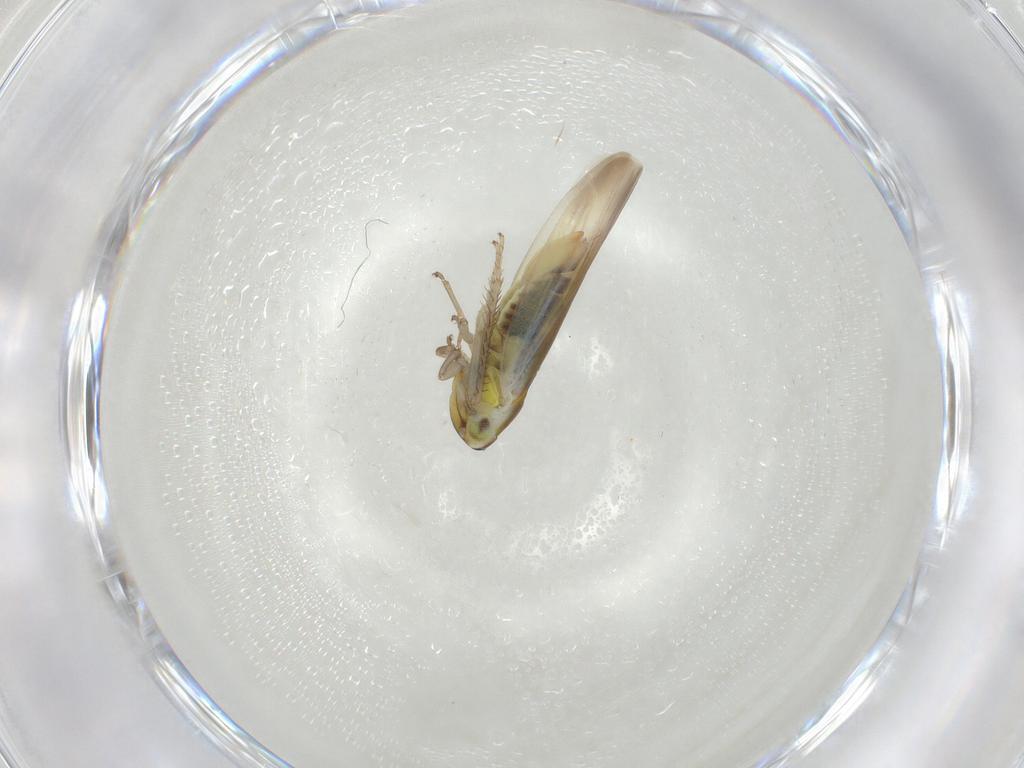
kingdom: Animalia
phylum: Arthropoda
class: Insecta
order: Hemiptera
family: Cicadellidae
